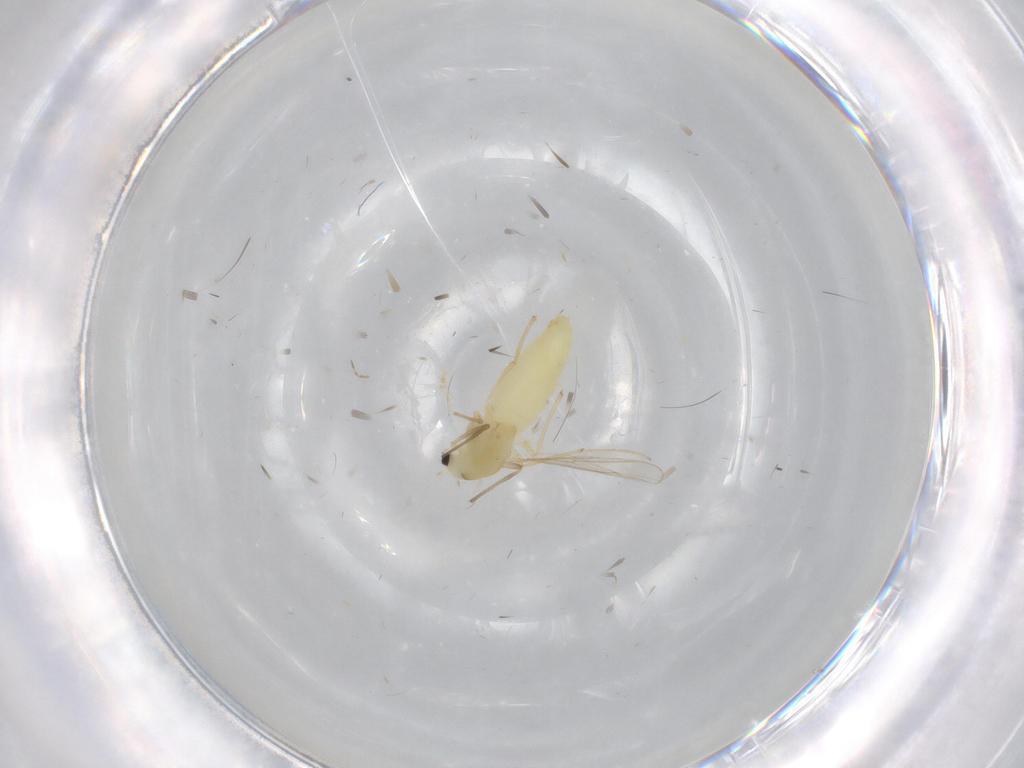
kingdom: Animalia
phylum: Arthropoda
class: Insecta
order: Diptera
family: Chironomidae
